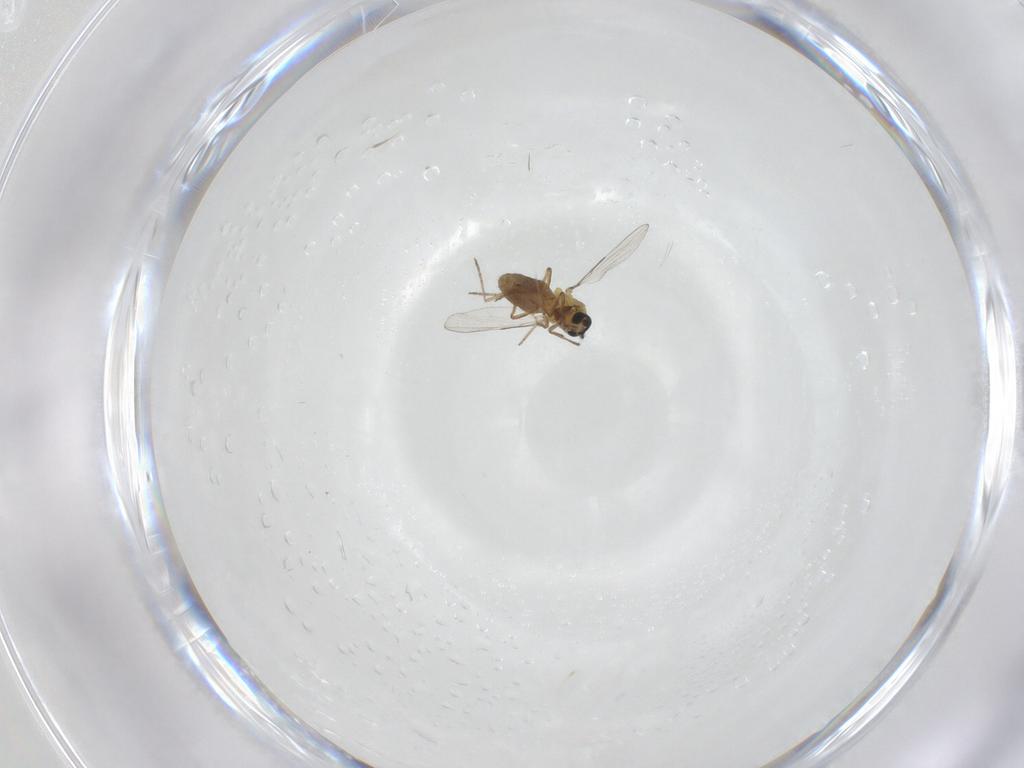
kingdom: Animalia
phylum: Arthropoda
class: Insecta
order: Diptera
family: Ceratopogonidae
